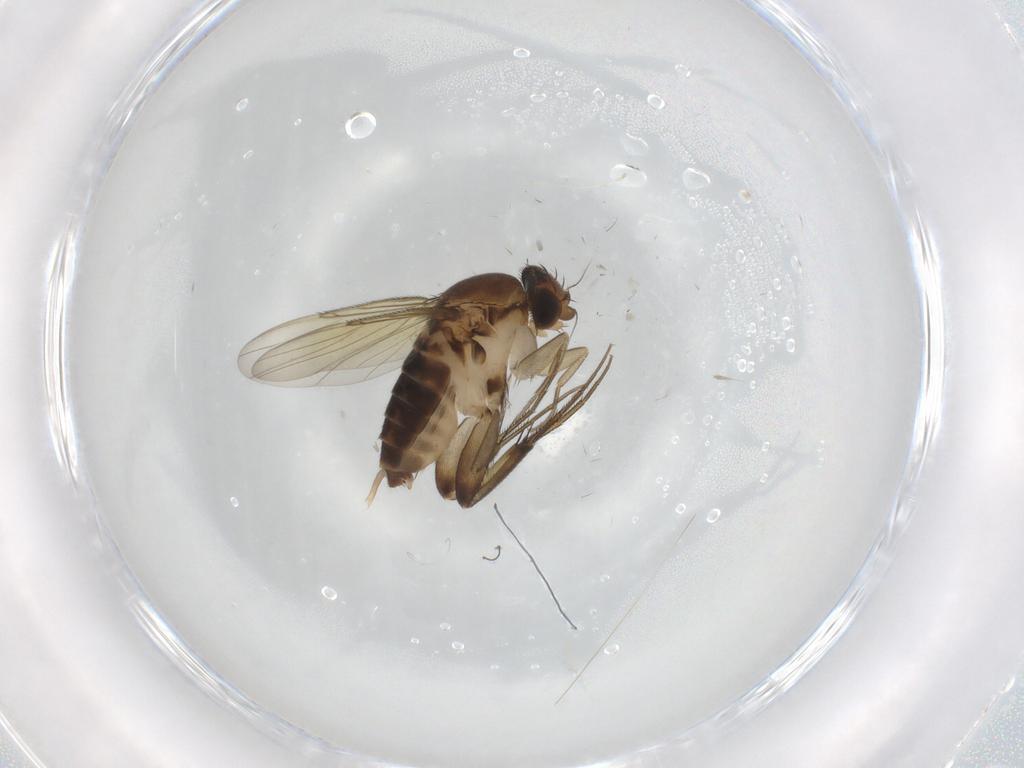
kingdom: Animalia
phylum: Arthropoda
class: Insecta
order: Diptera
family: Phoridae
